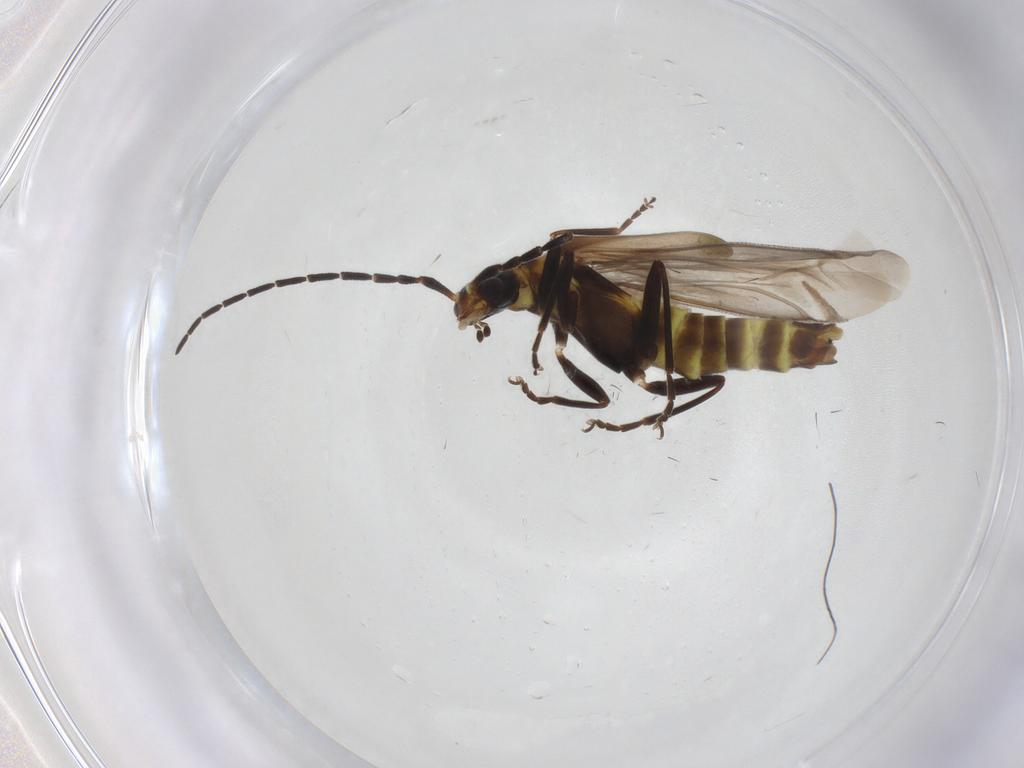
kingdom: Animalia
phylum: Arthropoda
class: Insecta
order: Coleoptera
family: Cantharidae
